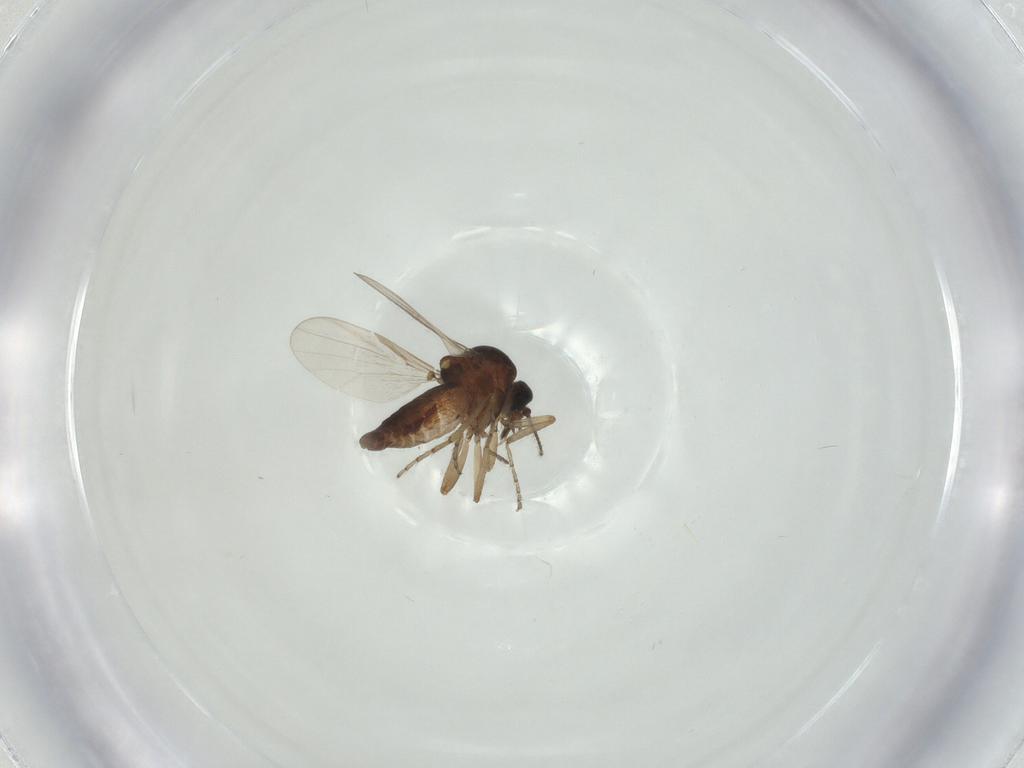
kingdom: Animalia
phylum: Arthropoda
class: Insecta
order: Diptera
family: Ceratopogonidae
